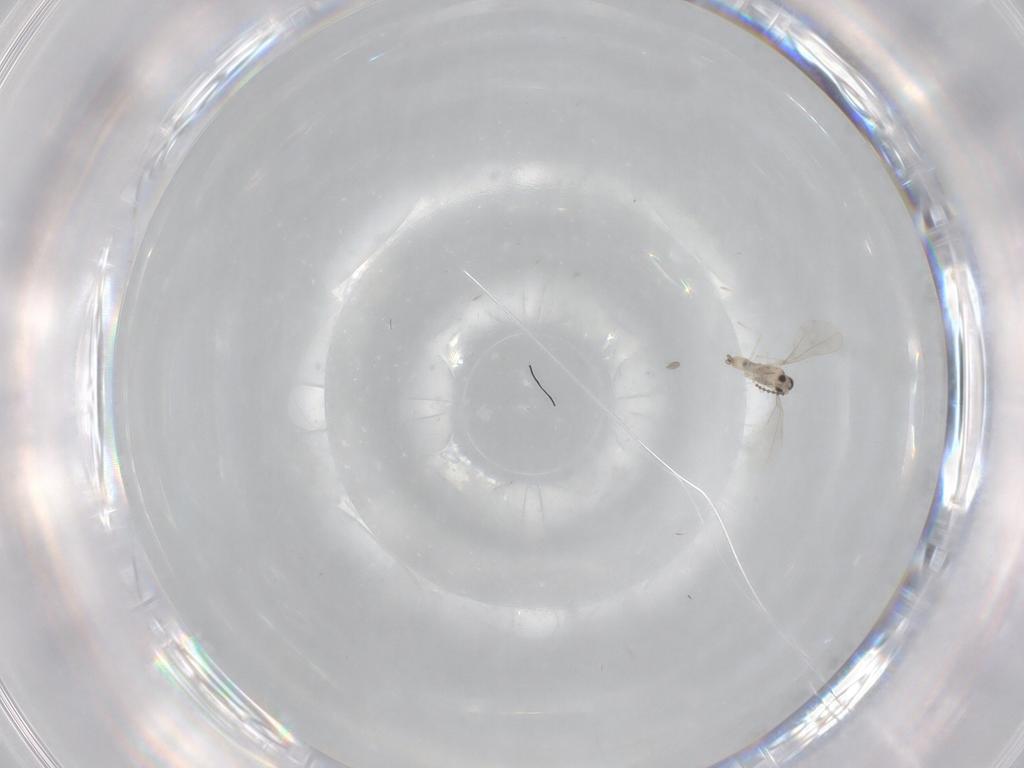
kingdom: Animalia
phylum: Arthropoda
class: Insecta
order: Diptera
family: Cecidomyiidae
